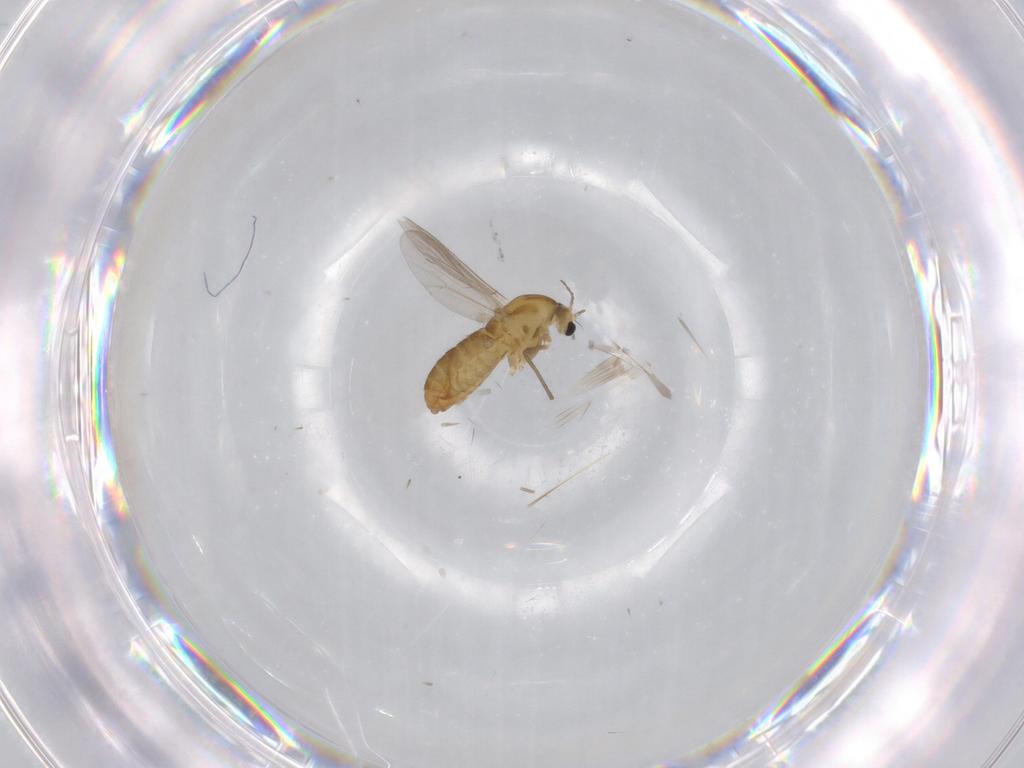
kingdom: Animalia
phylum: Arthropoda
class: Insecta
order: Diptera
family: Chironomidae
